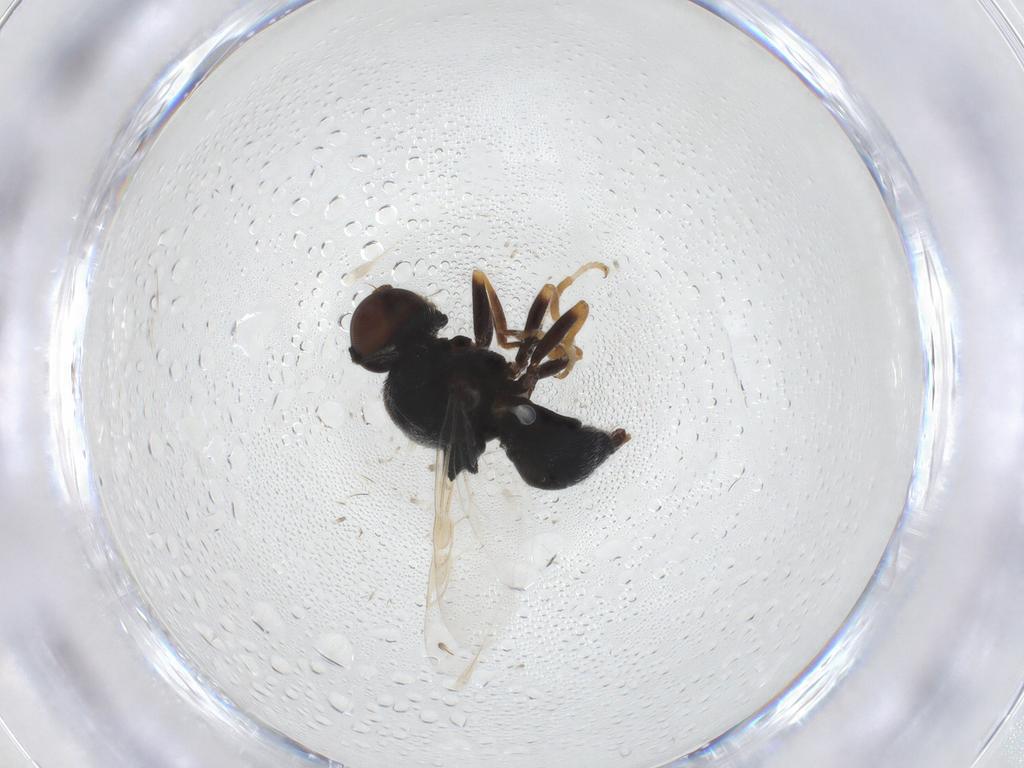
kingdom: Animalia
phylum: Arthropoda
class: Insecta
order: Diptera
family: Stratiomyidae
